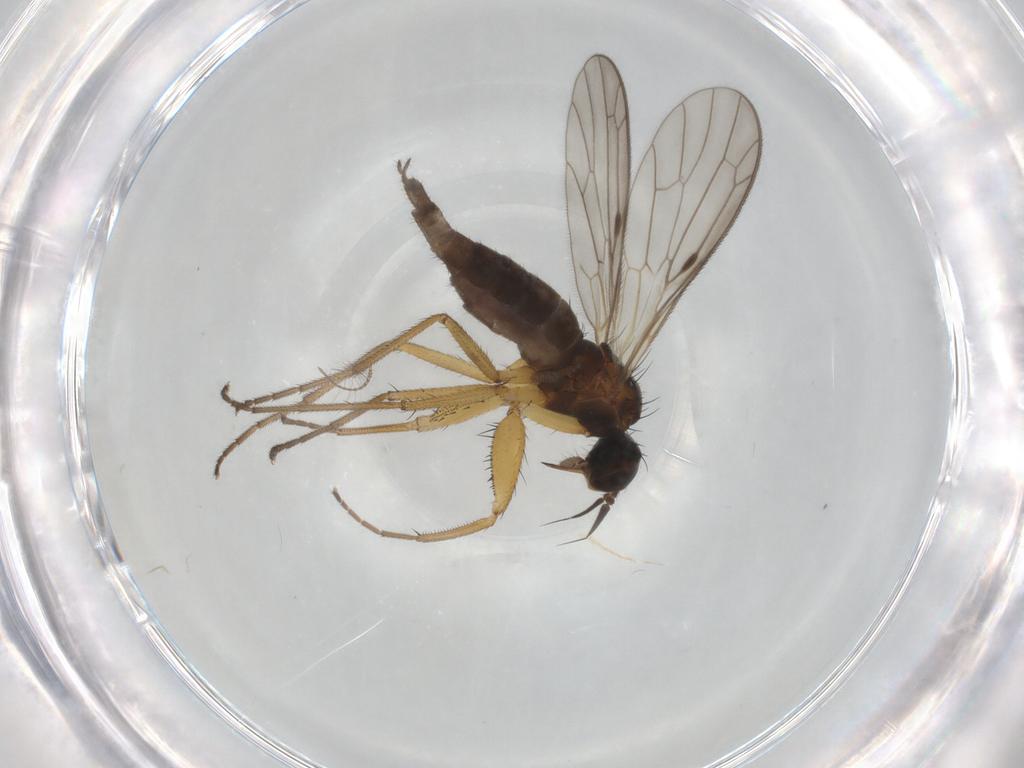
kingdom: Animalia
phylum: Arthropoda
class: Insecta
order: Diptera
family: Empididae
